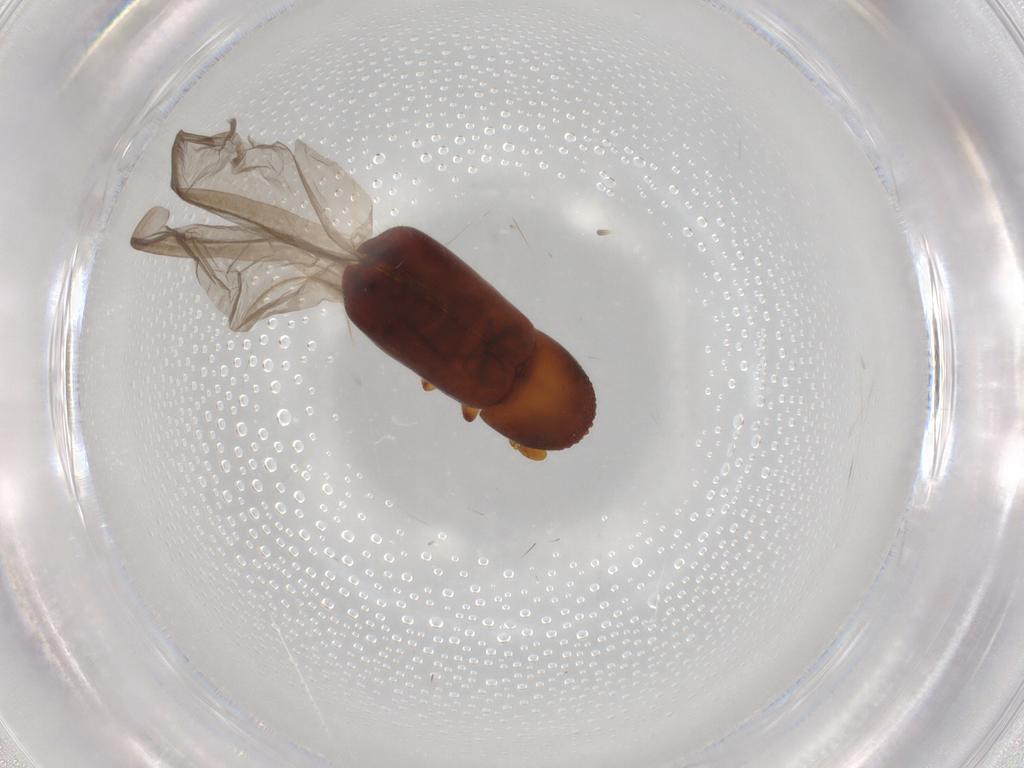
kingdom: Animalia
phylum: Arthropoda
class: Insecta
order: Coleoptera
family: Curculionidae
